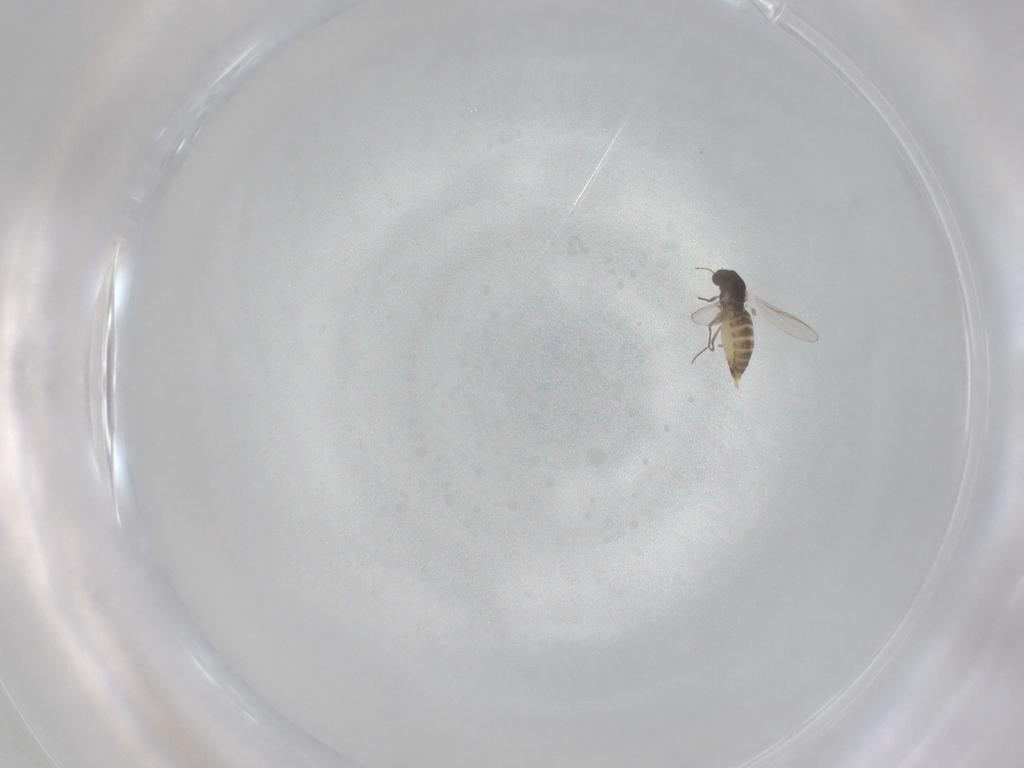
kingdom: Animalia
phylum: Arthropoda
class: Insecta
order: Diptera
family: Chironomidae
